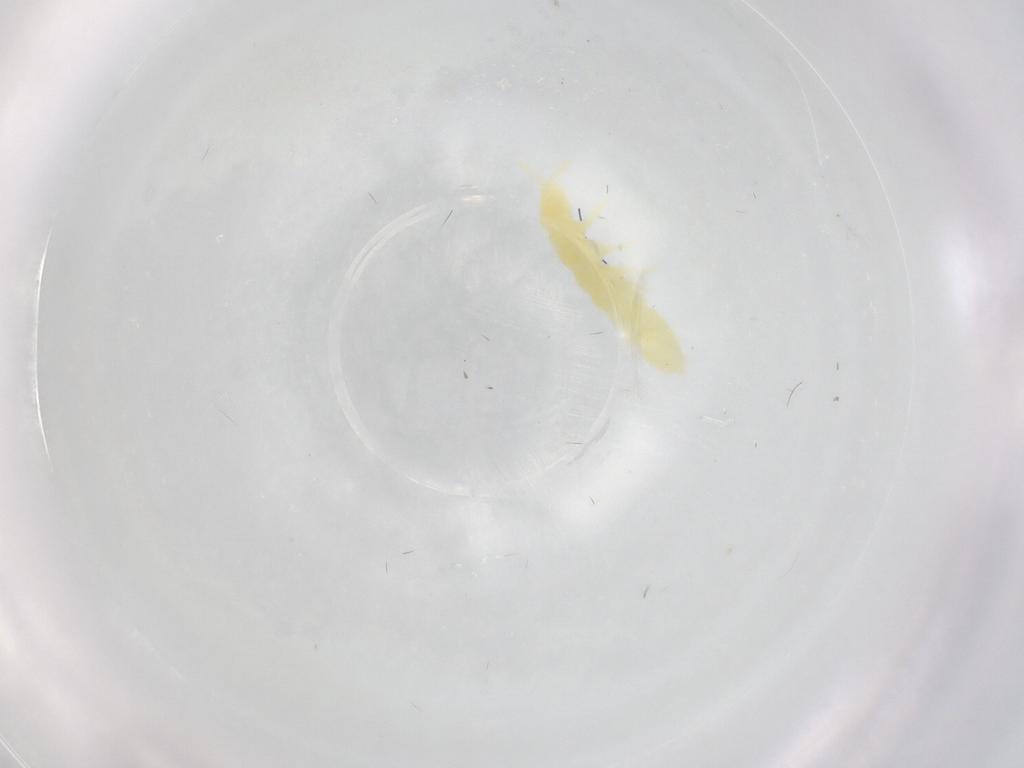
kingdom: Animalia
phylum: Arthropoda
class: Collembola
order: Poduromorpha
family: Onychiuridae
